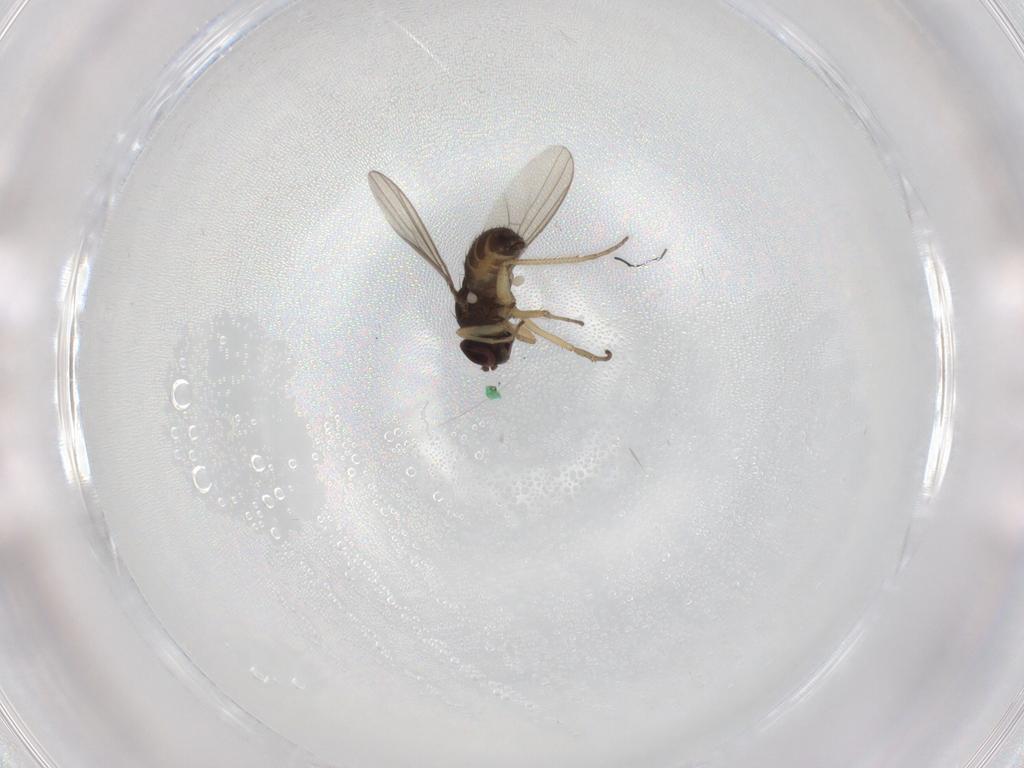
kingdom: Animalia
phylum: Arthropoda
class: Insecta
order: Diptera
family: Dolichopodidae
